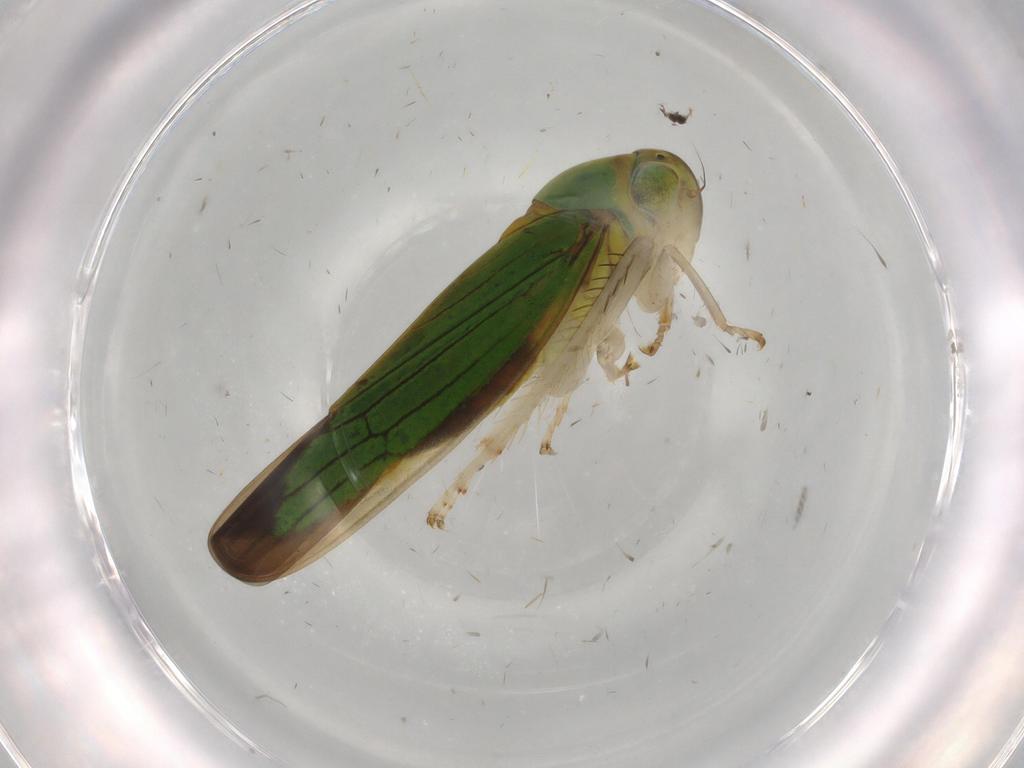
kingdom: Animalia
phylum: Arthropoda
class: Insecta
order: Hemiptera
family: Cicadellidae
